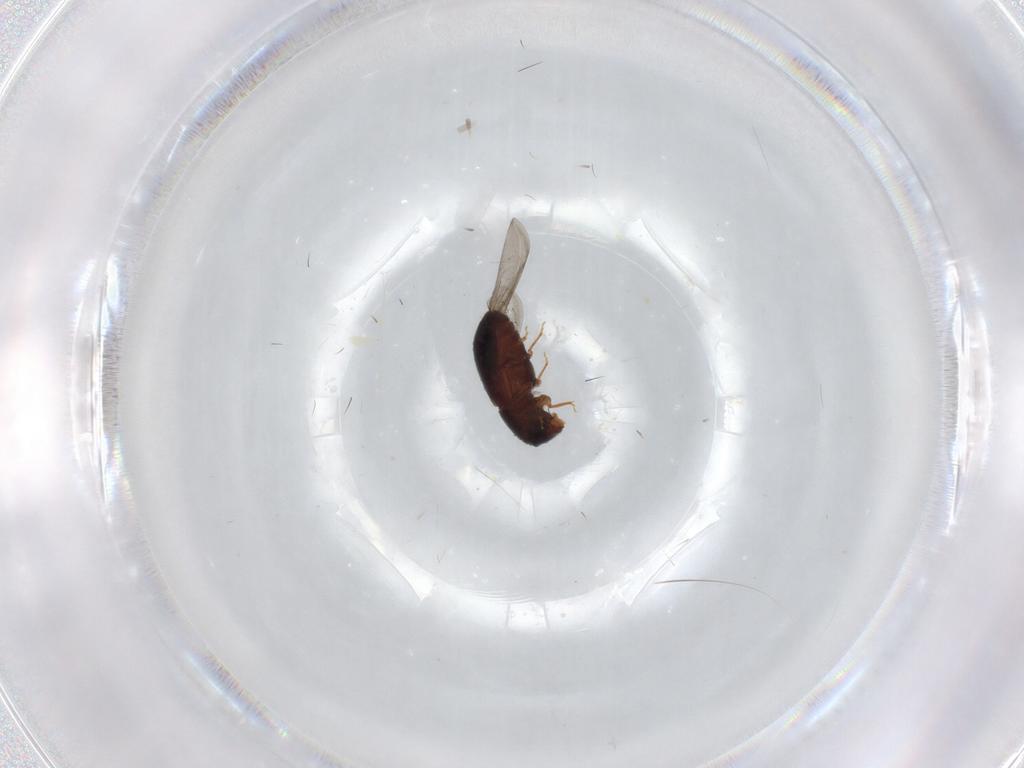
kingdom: Animalia
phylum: Arthropoda
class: Insecta
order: Coleoptera
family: Curculionidae
